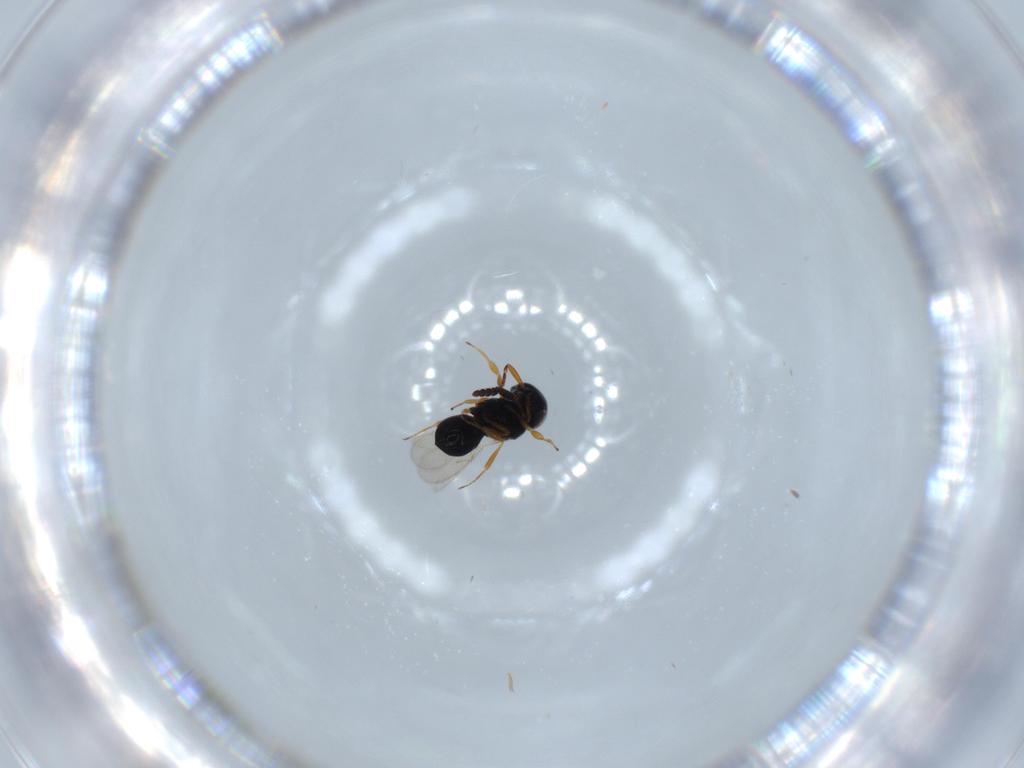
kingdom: Animalia
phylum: Arthropoda
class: Insecta
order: Hymenoptera
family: Scelionidae
